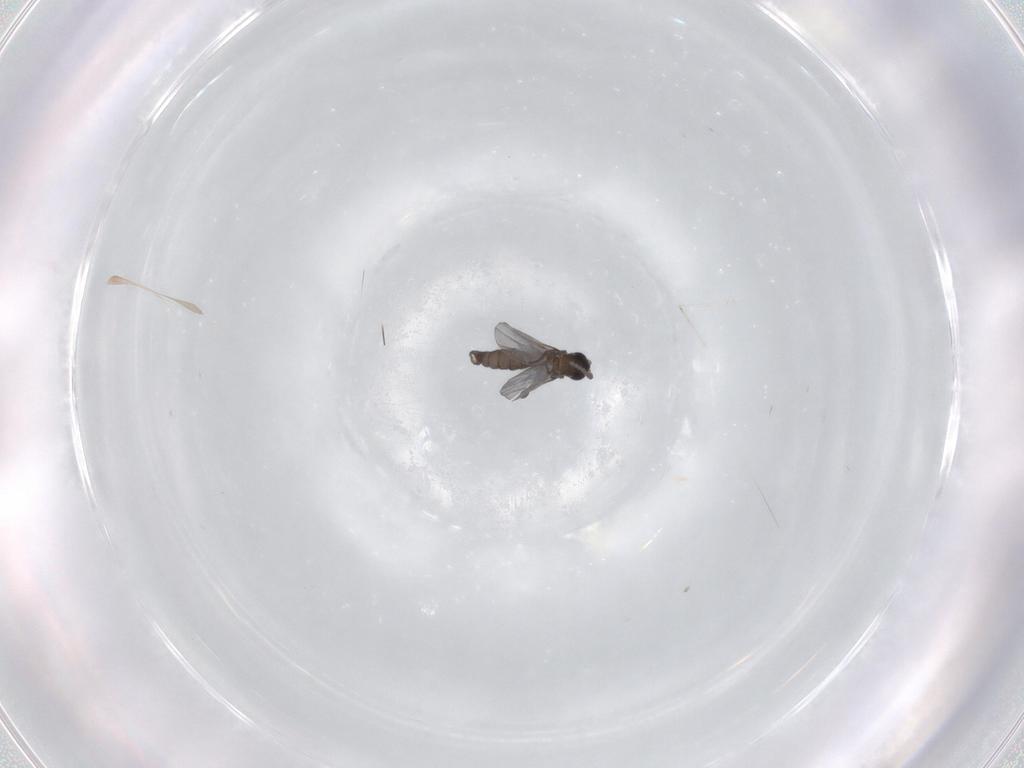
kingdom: Animalia
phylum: Arthropoda
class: Insecta
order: Diptera
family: Sciaridae
